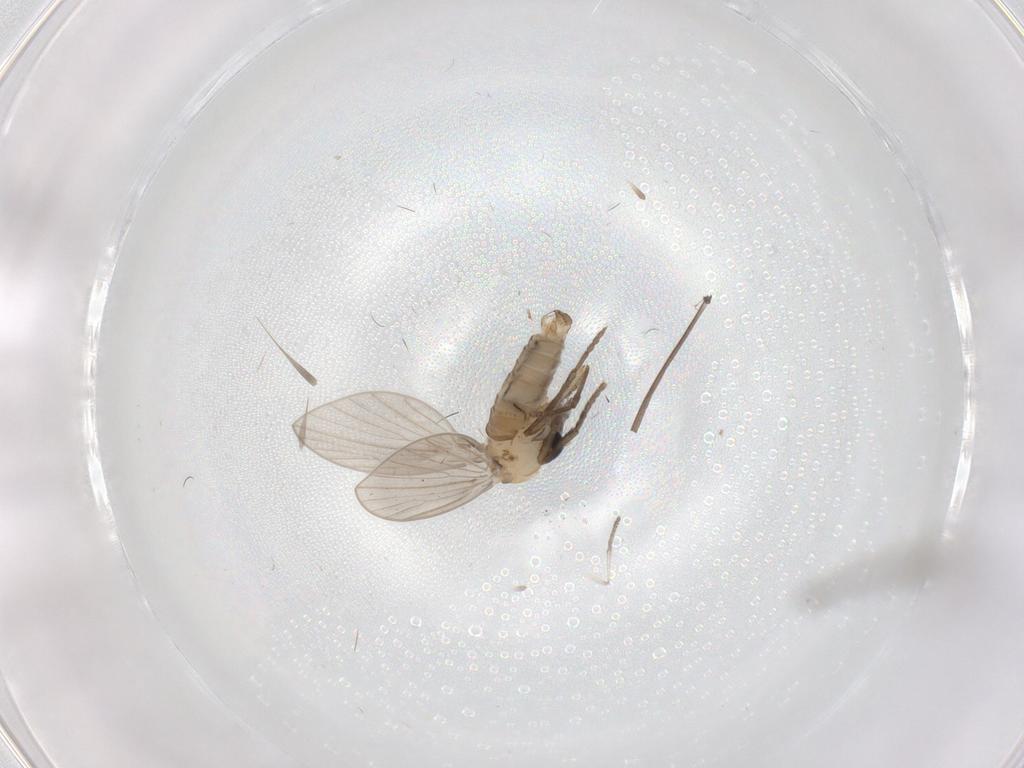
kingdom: Animalia
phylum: Arthropoda
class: Insecta
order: Diptera
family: Psychodidae
